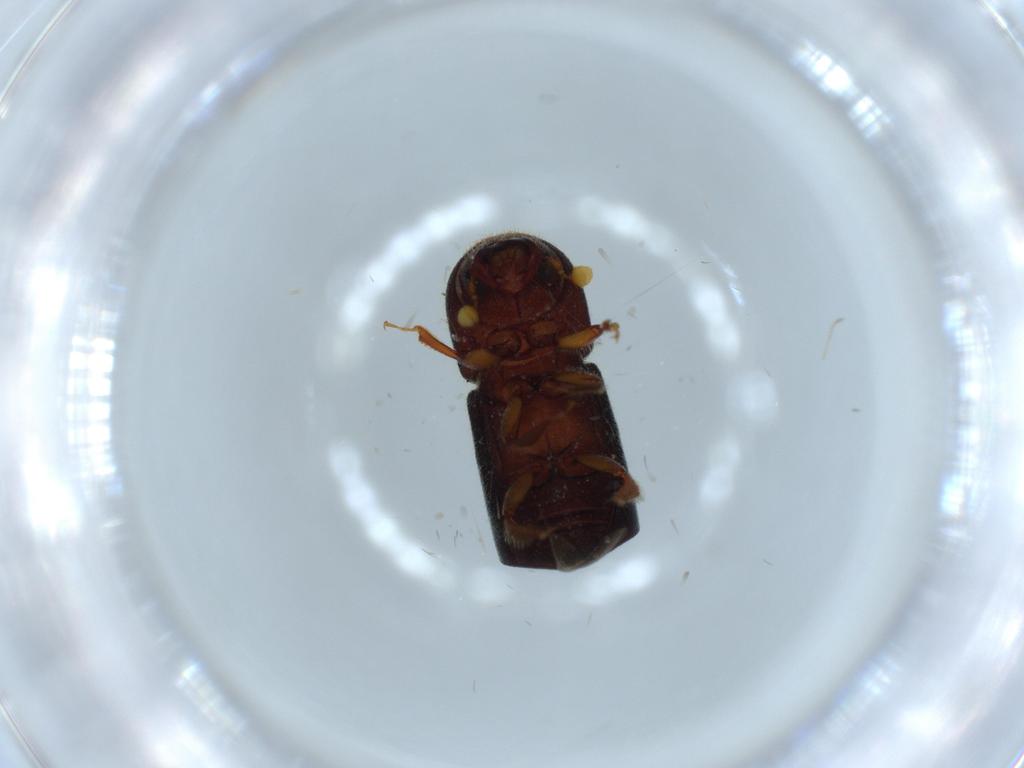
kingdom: Animalia
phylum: Arthropoda
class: Insecta
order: Coleoptera
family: Curculionidae
